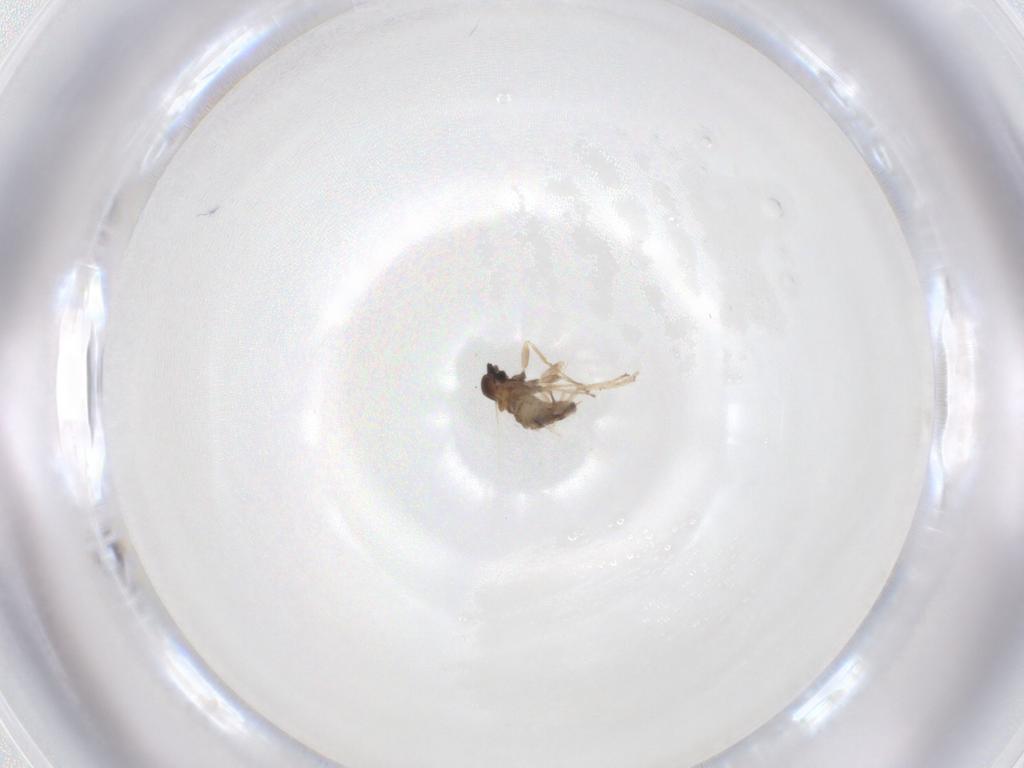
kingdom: Animalia
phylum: Arthropoda
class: Insecta
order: Diptera
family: Cecidomyiidae
